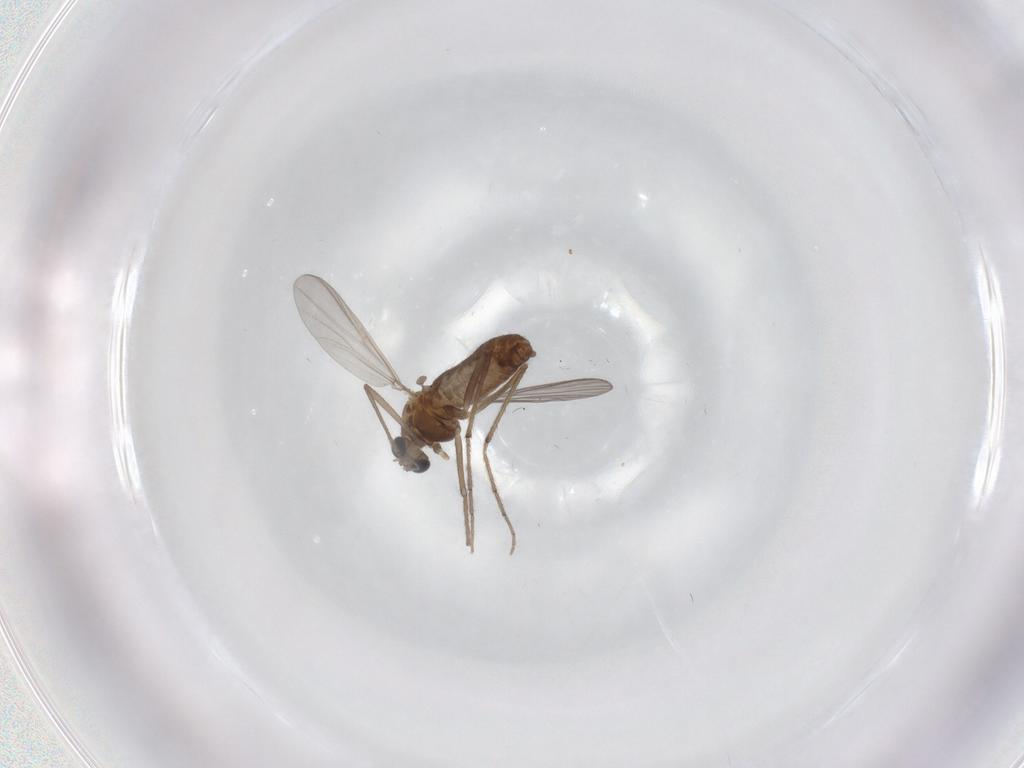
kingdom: Animalia
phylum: Arthropoda
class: Insecta
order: Diptera
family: Chironomidae
